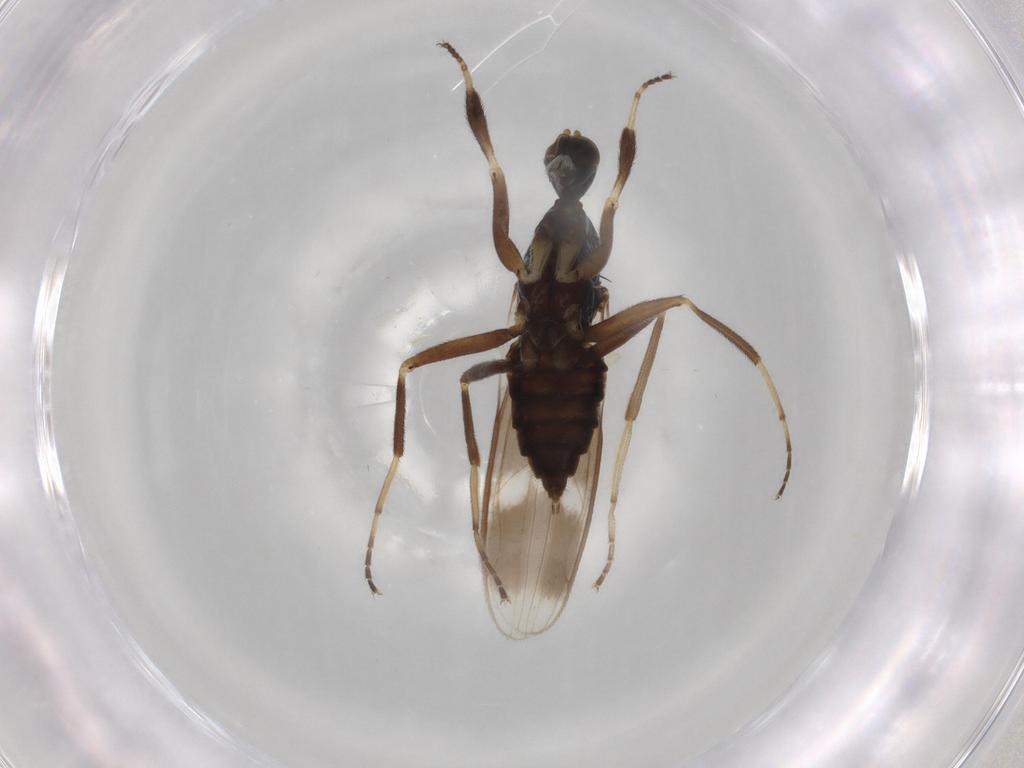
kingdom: Animalia
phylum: Arthropoda
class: Insecta
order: Diptera
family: Hybotidae
